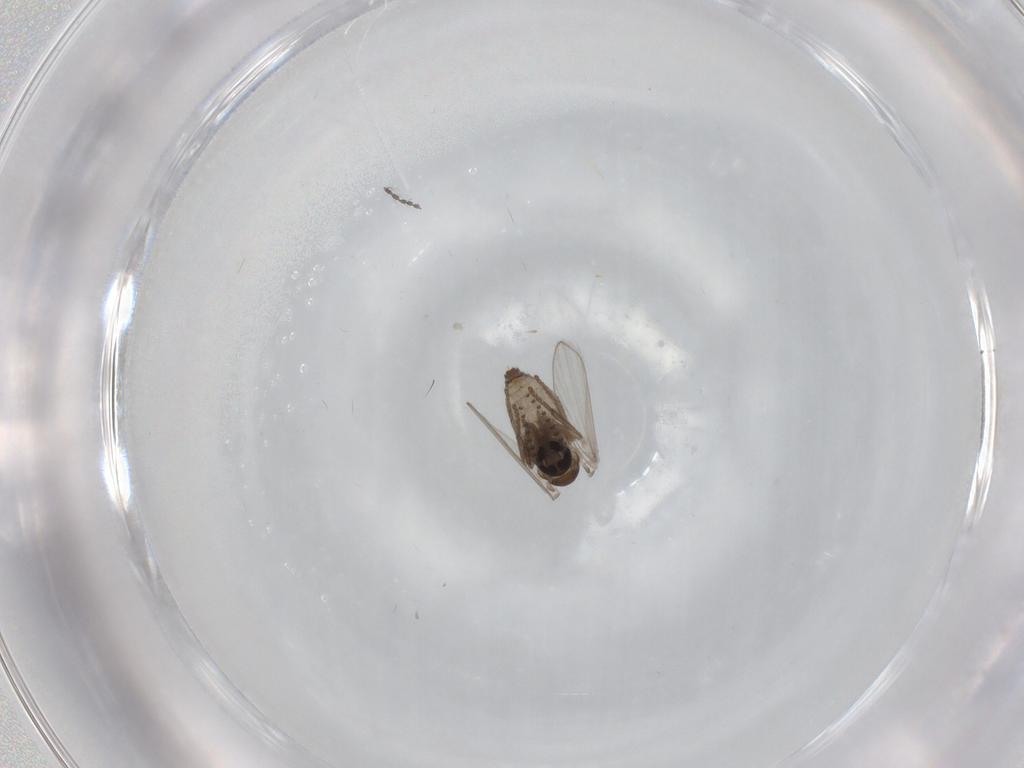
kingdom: Animalia
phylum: Arthropoda
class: Insecta
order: Diptera
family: Psychodidae
